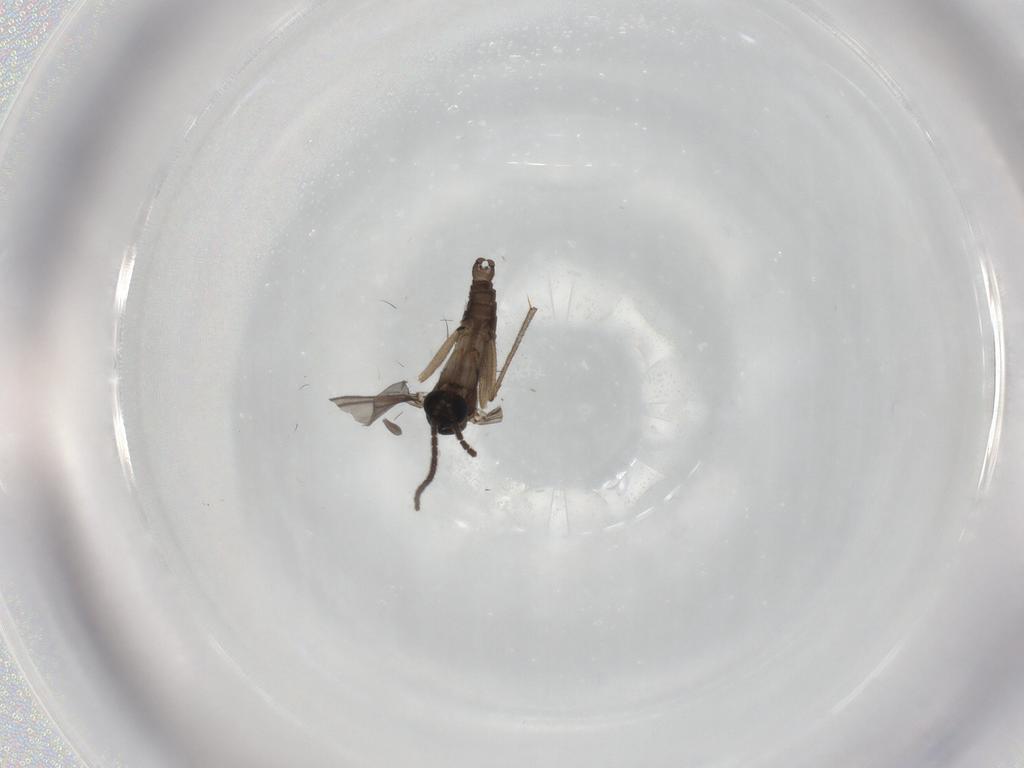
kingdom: Animalia
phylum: Arthropoda
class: Insecta
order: Diptera
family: Sciaridae
